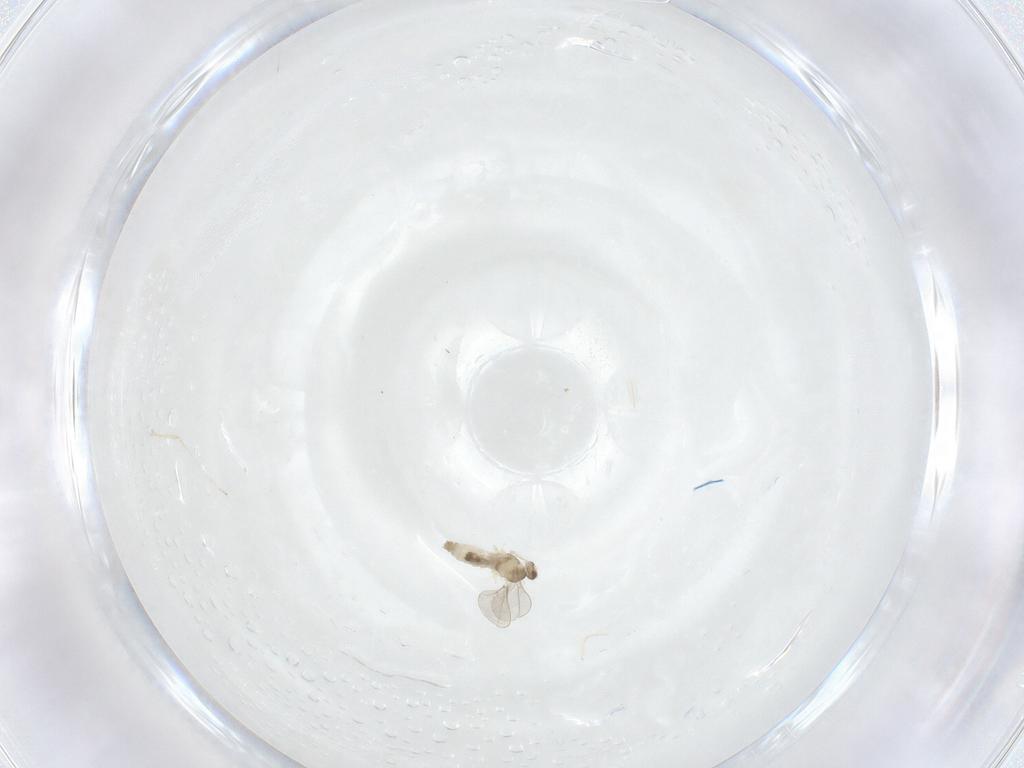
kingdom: Animalia
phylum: Arthropoda
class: Insecta
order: Diptera
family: Cecidomyiidae
